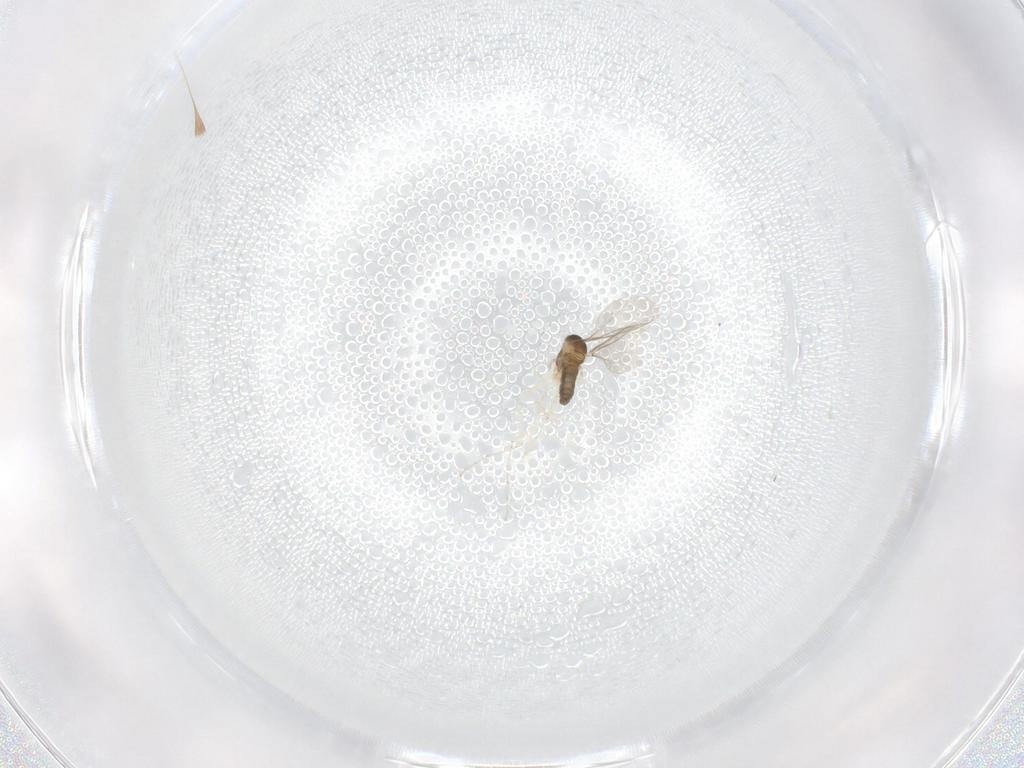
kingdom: Animalia
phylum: Arthropoda
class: Insecta
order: Diptera
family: Cecidomyiidae
